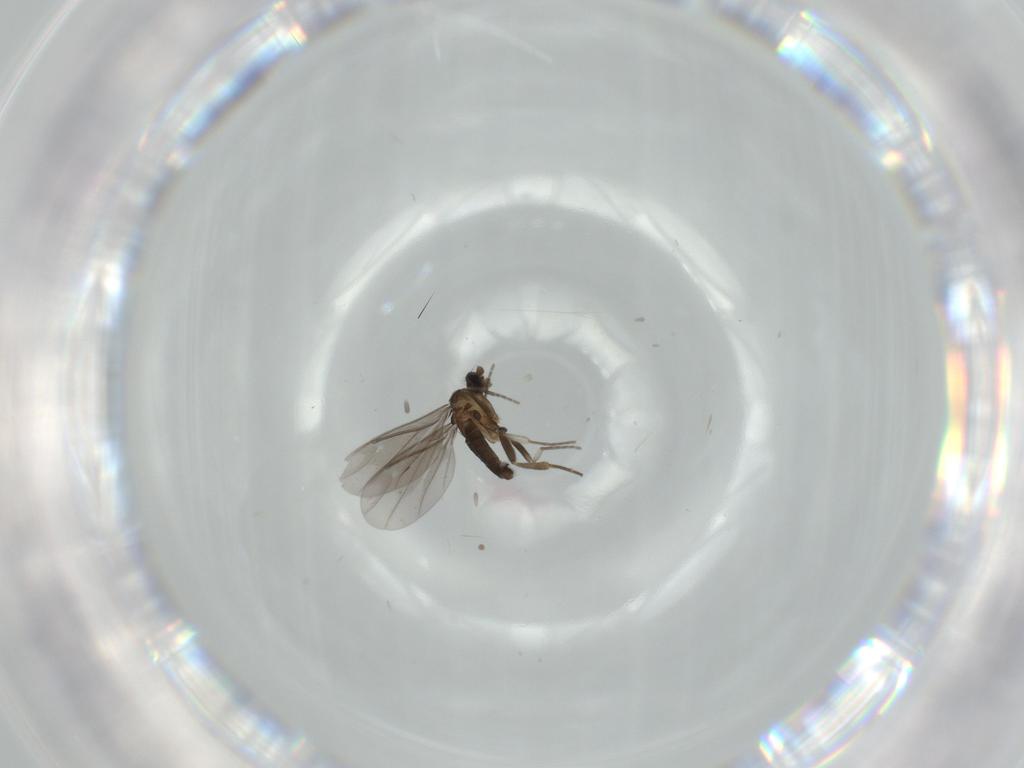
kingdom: Animalia
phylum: Arthropoda
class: Insecta
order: Diptera
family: Phoridae
